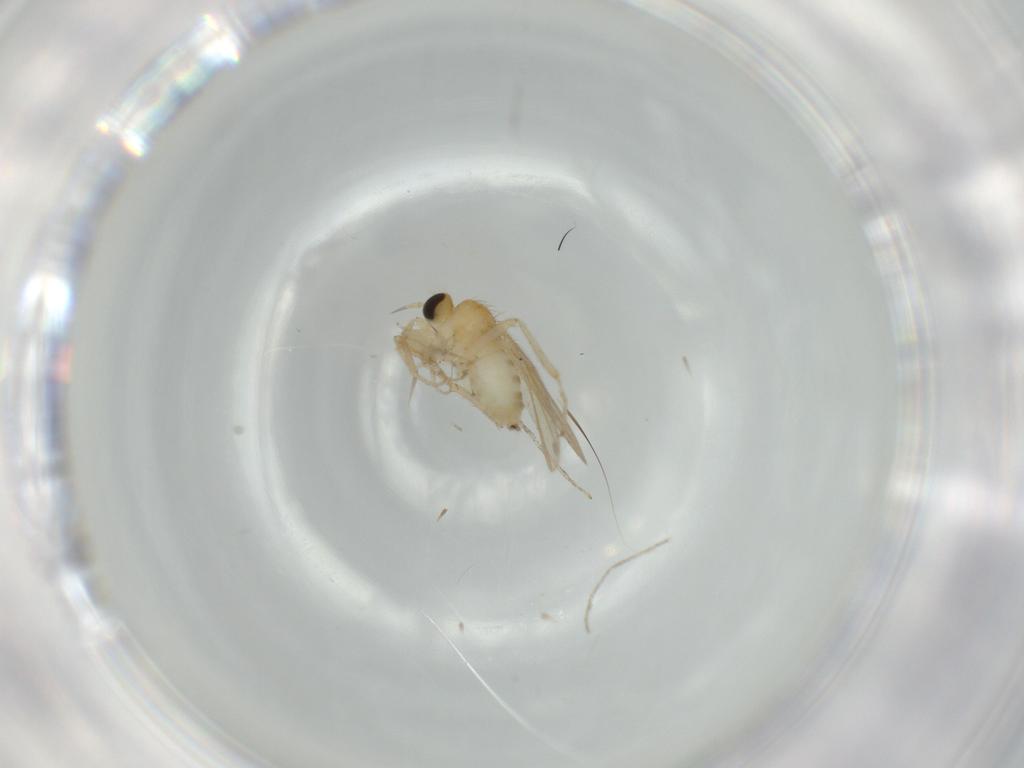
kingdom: Animalia
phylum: Arthropoda
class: Insecta
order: Diptera
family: Hybotidae
